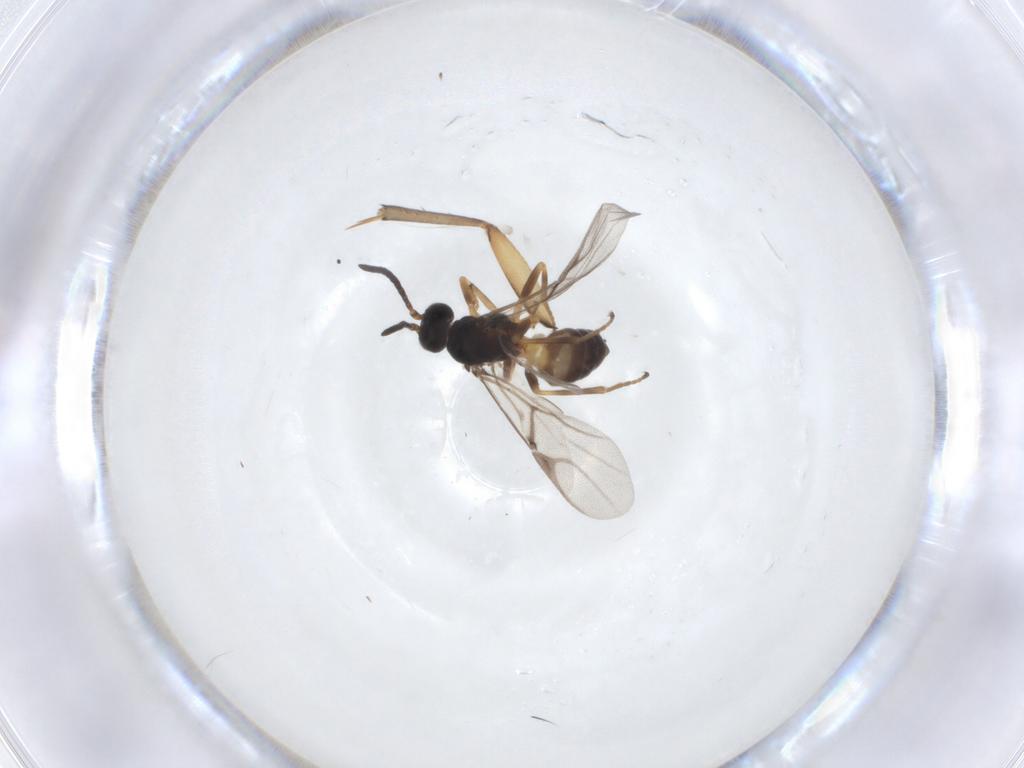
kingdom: Animalia
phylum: Arthropoda
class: Insecta
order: Hymenoptera
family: Braconidae
